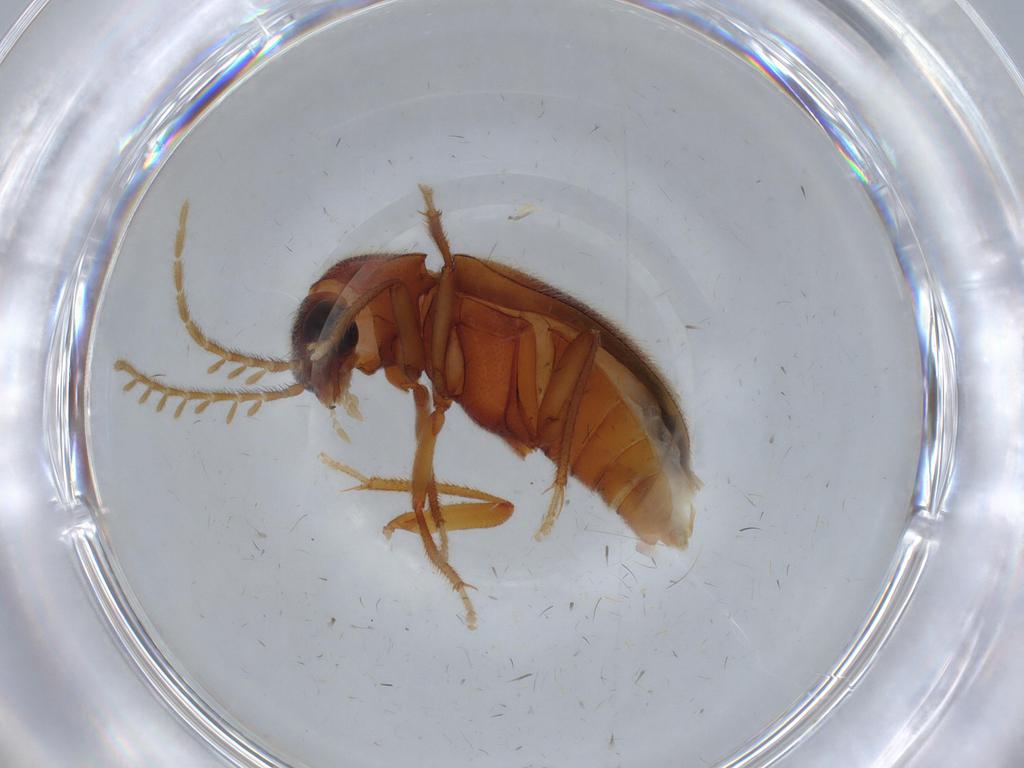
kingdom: Animalia
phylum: Arthropoda
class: Insecta
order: Coleoptera
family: Ptilodactylidae
